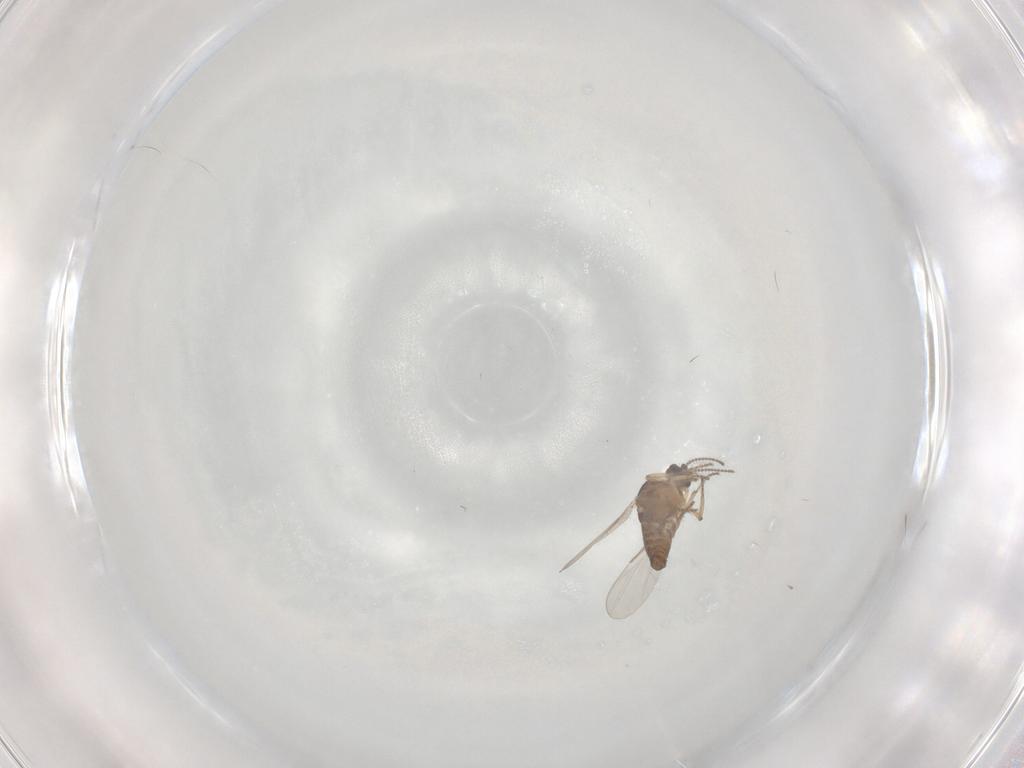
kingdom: Animalia
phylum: Arthropoda
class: Insecta
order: Diptera
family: Ceratopogonidae
